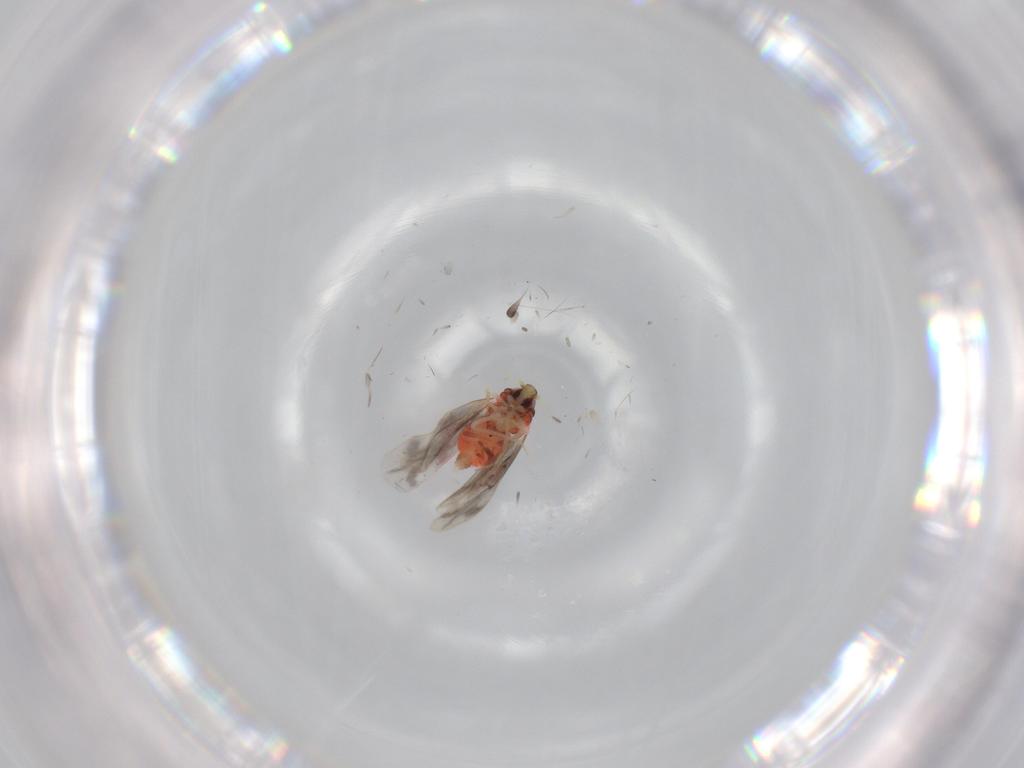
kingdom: Animalia
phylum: Arthropoda
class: Insecta
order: Hemiptera
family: Aleyrodidae
